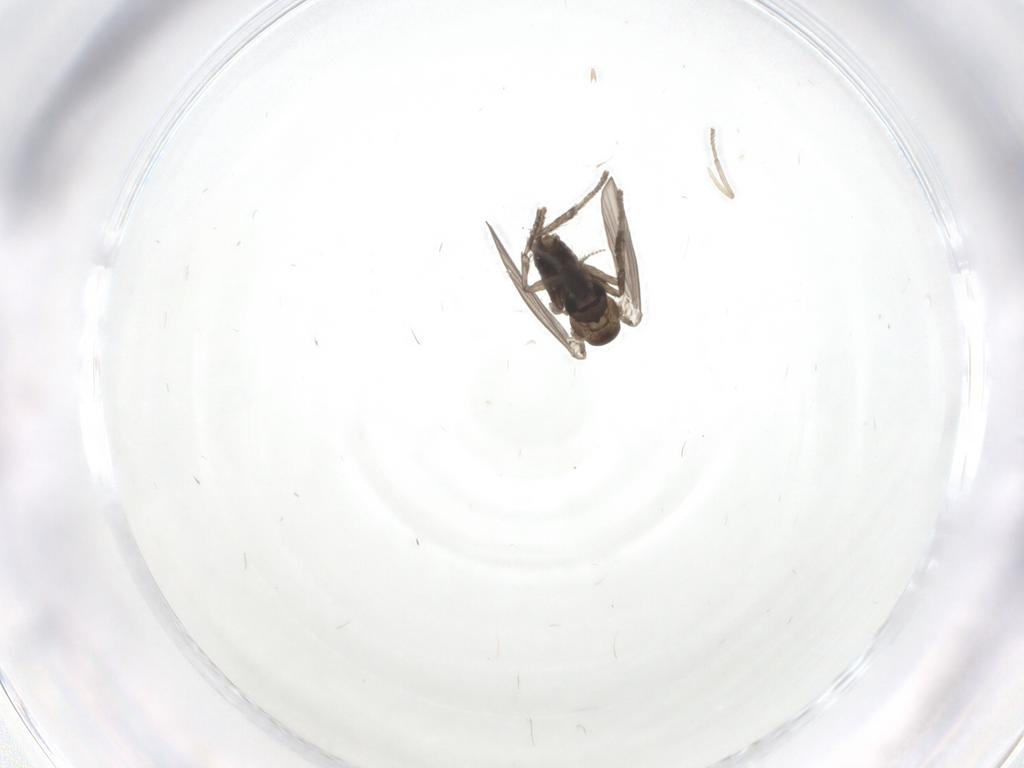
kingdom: Animalia
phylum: Arthropoda
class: Insecta
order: Diptera
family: Psychodidae
